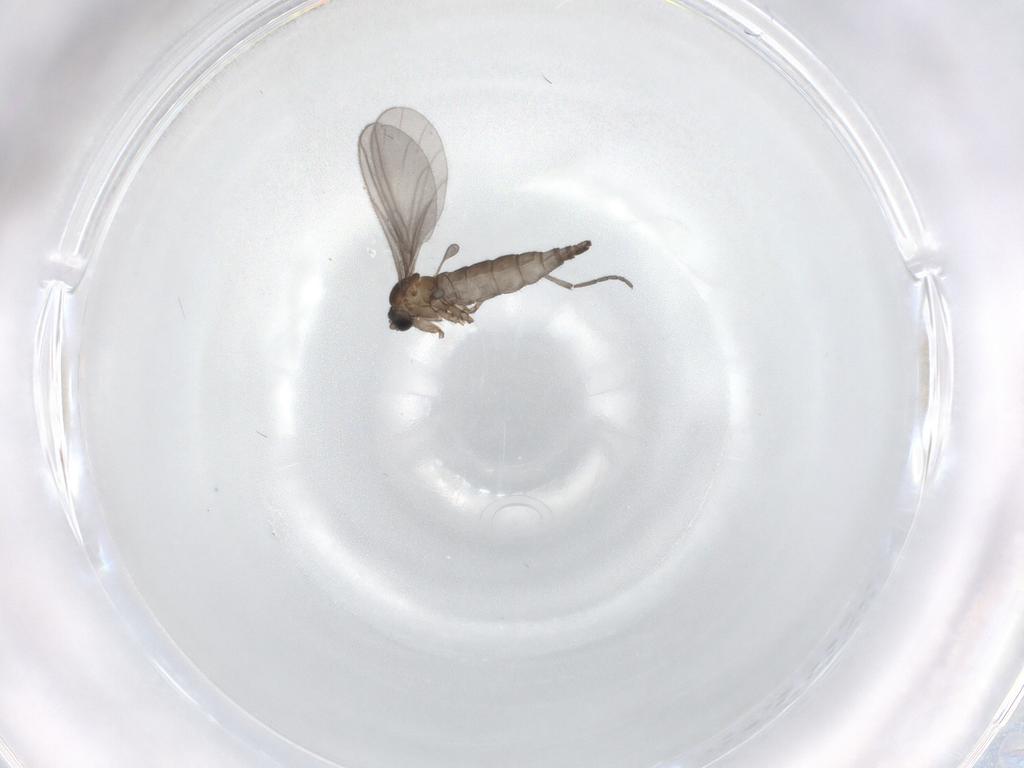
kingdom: Animalia
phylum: Arthropoda
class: Insecta
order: Diptera
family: Sciaridae
